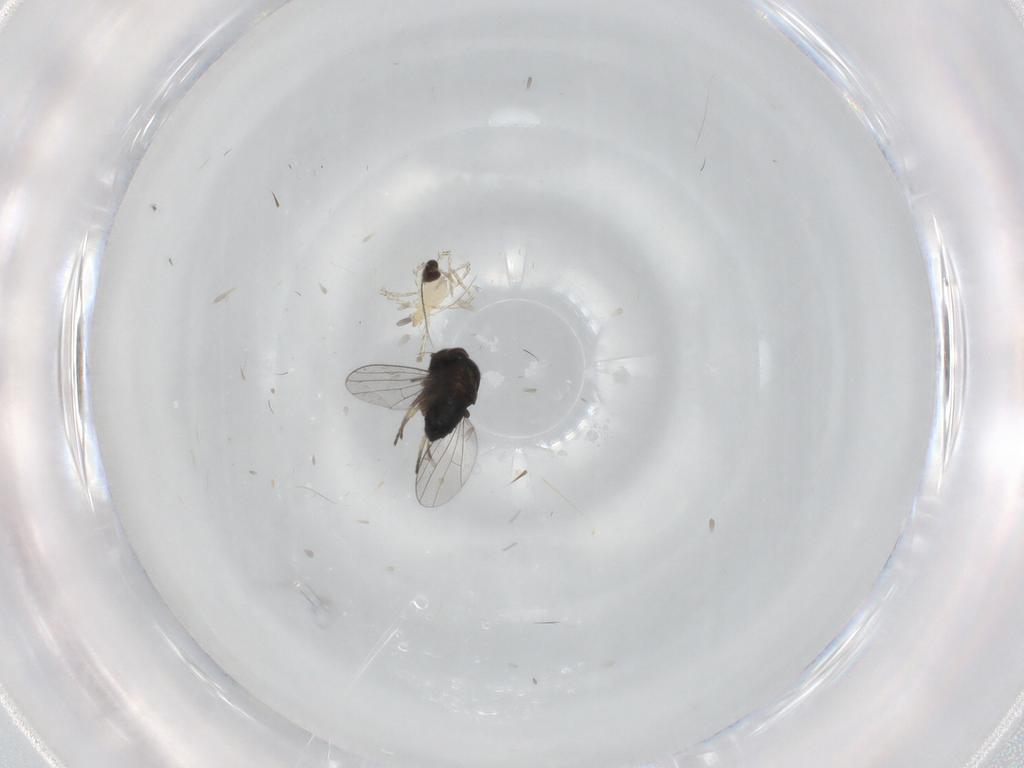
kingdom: Animalia
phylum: Arthropoda
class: Insecta
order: Diptera
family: Dolichopodidae
